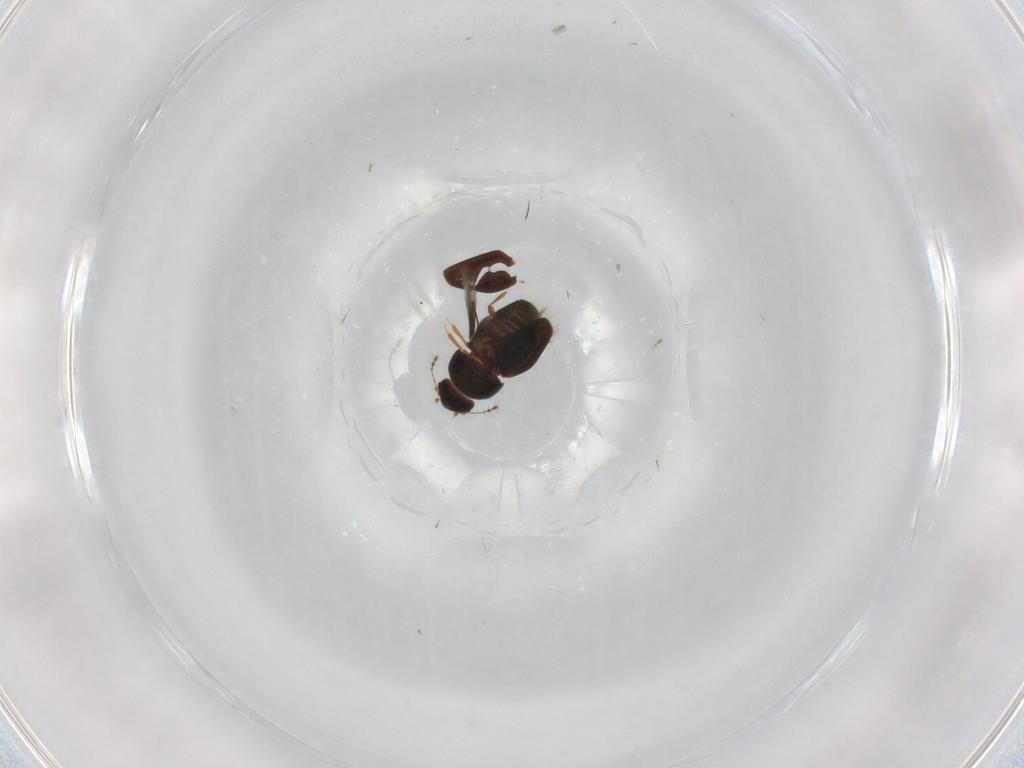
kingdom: Animalia
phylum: Arthropoda
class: Insecta
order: Coleoptera
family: Ptiliidae
